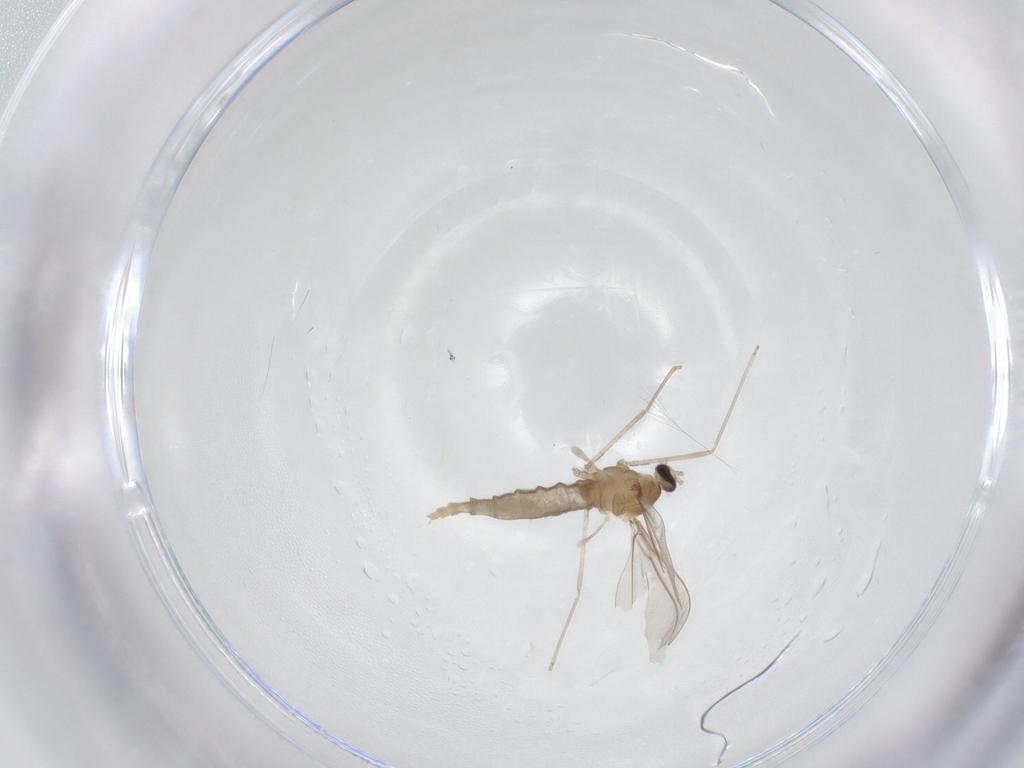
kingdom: Animalia
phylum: Arthropoda
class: Insecta
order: Diptera
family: Cecidomyiidae
